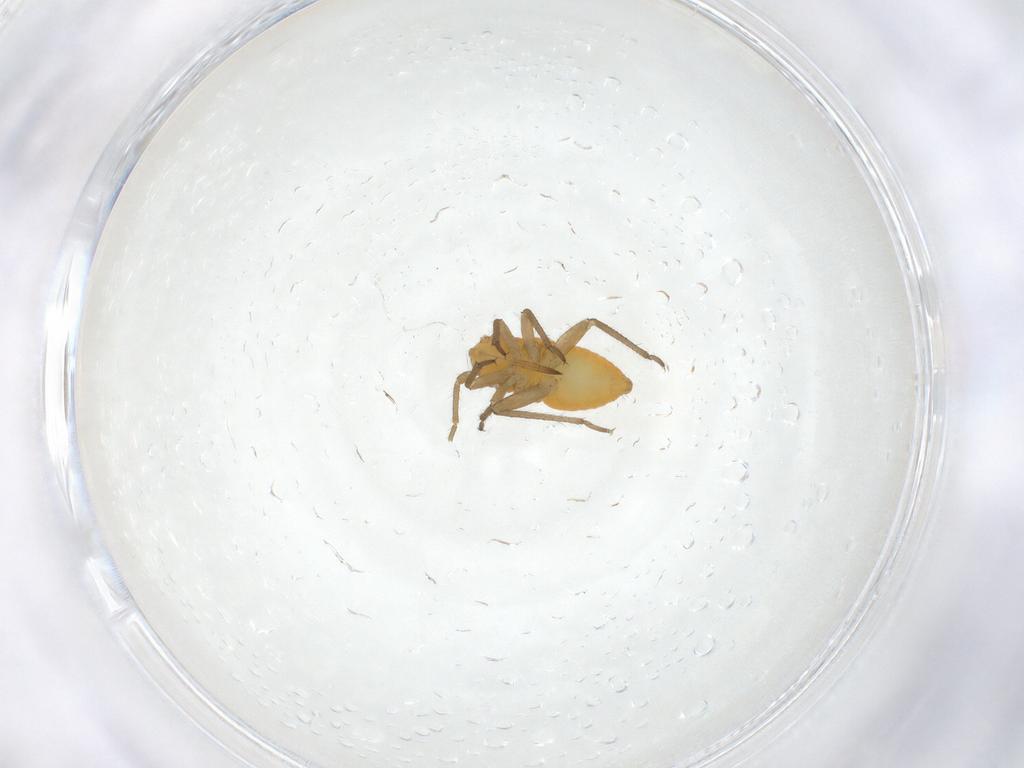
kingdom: Animalia
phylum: Arthropoda
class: Insecta
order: Hemiptera
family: Miridae
